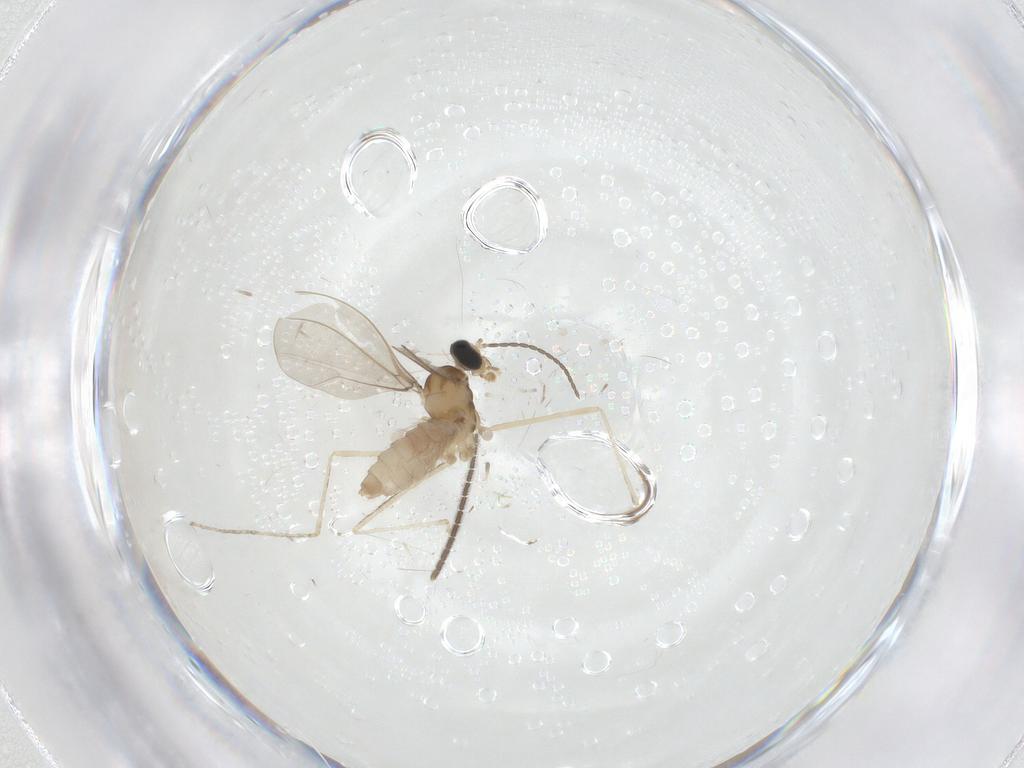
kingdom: Animalia
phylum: Arthropoda
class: Insecta
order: Diptera
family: Cecidomyiidae
